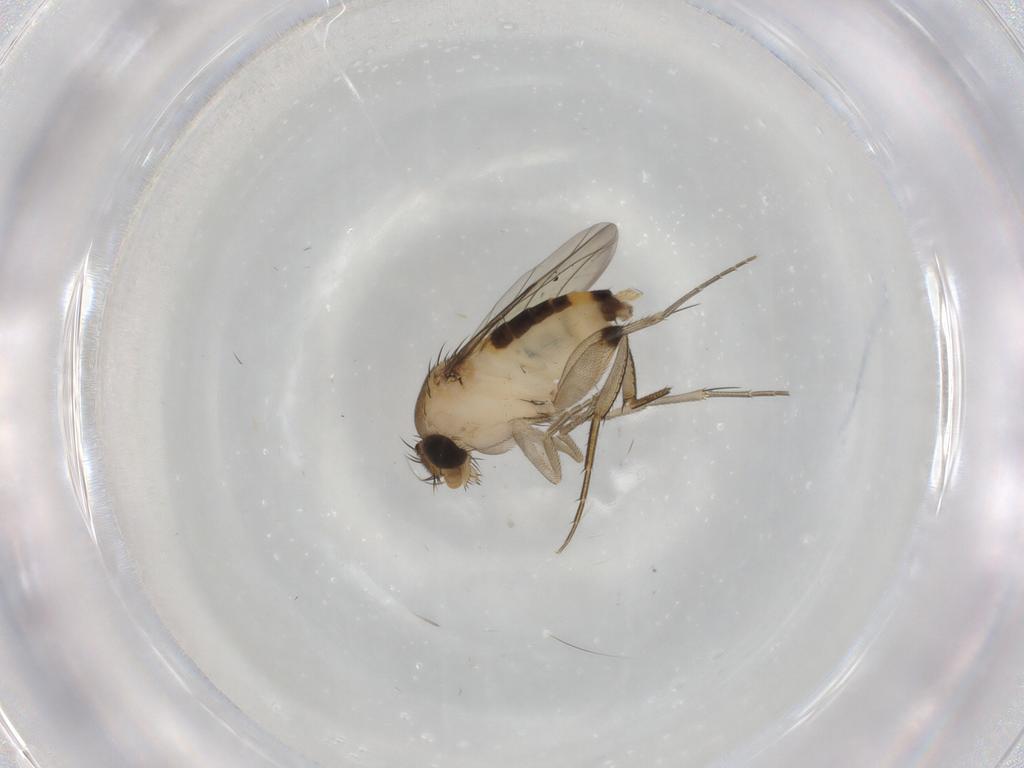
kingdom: Animalia
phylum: Arthropoda
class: Insecta
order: Diptera
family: Phoridae
